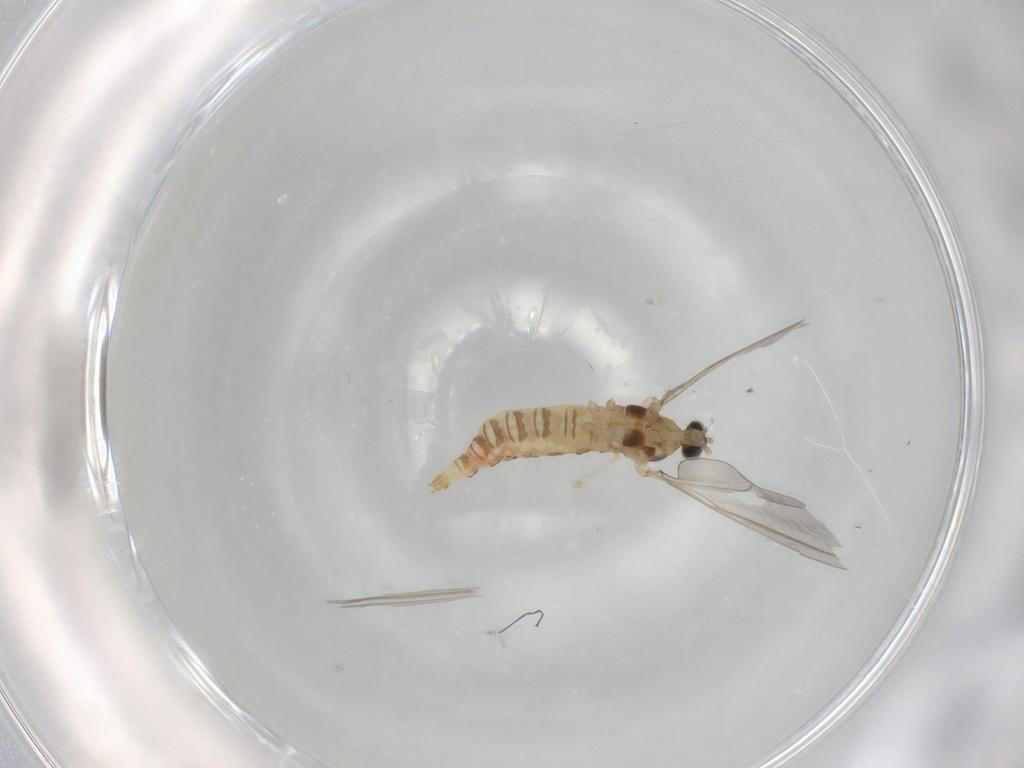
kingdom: Animalia
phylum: Arthropoda
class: Insecta
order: Diptera
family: Cecidomyiidae
